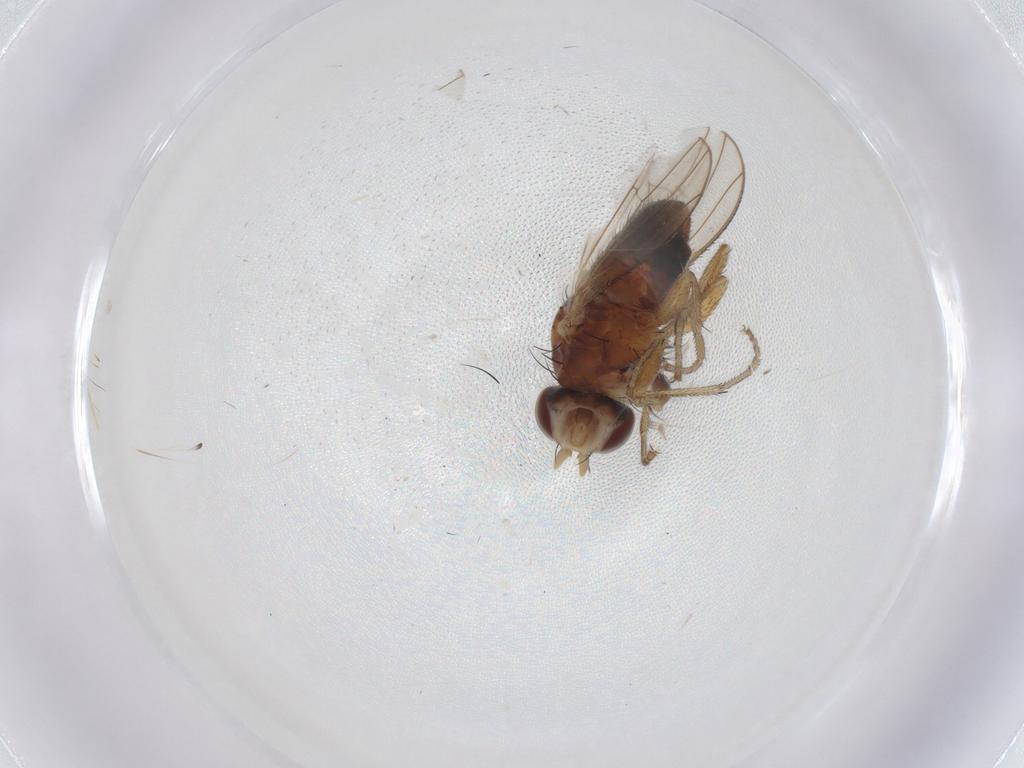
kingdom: Animalia
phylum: Arthropoda
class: Insecta
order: Diptera
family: Heleomyzidae
